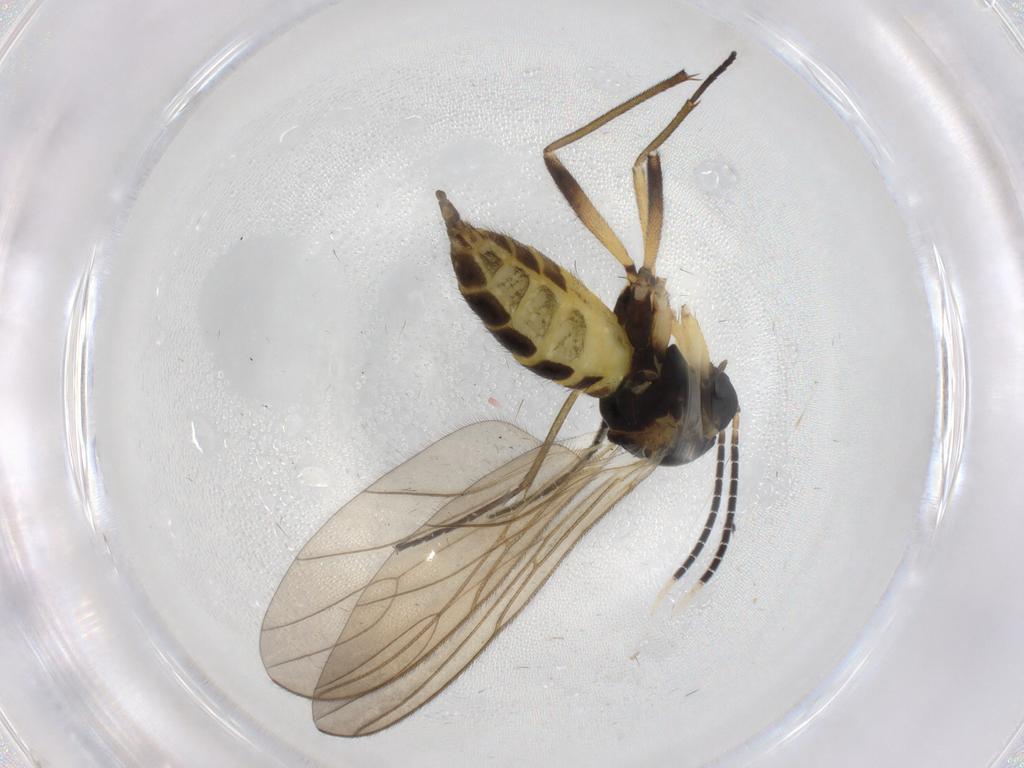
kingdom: Animalia
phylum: Arthropoda
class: Insecta
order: Diptera
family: Sciaridae
